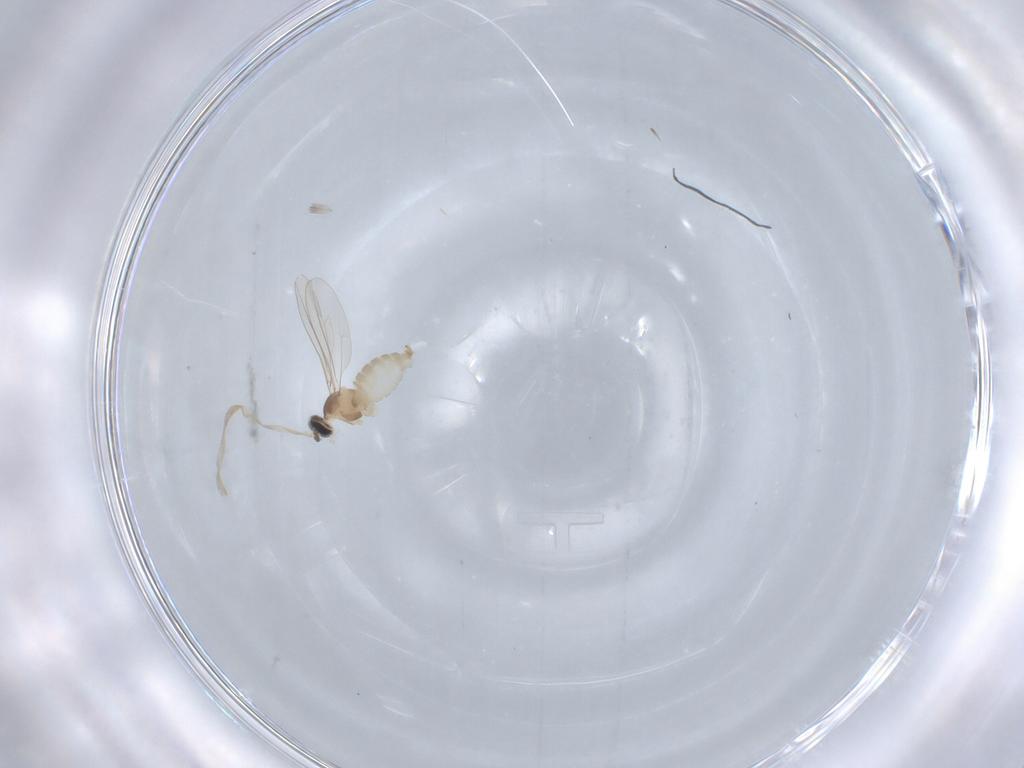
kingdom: Animalia
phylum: Arthropoda
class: Insecta
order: Diptera
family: Cecidomyiidae
